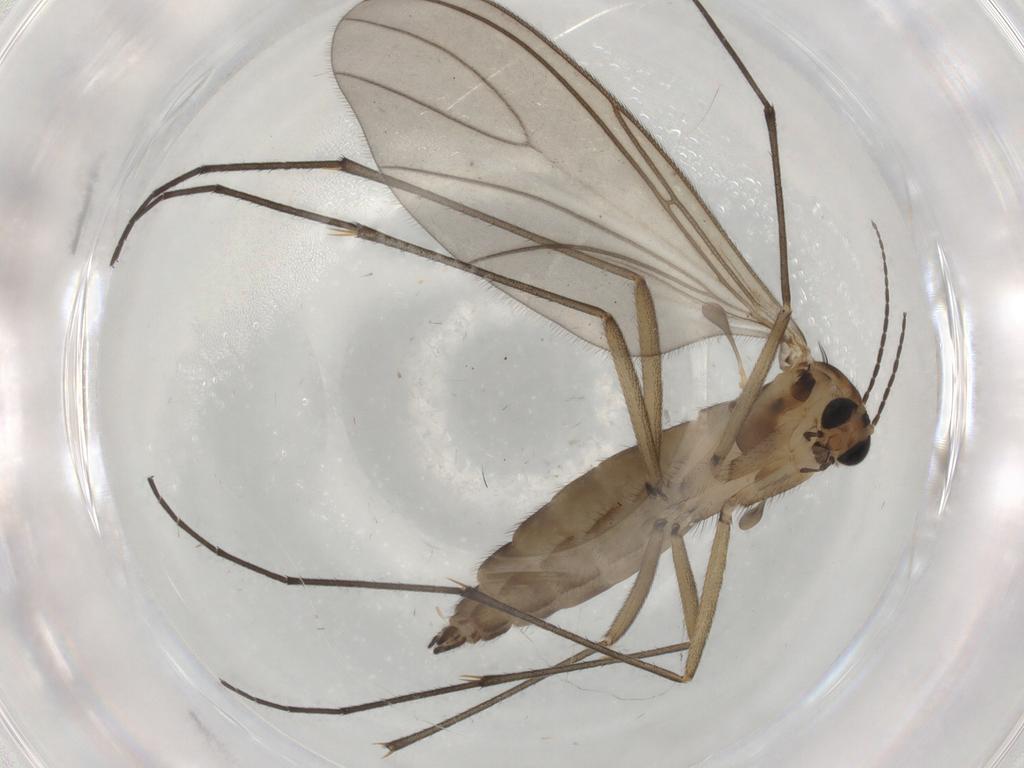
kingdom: Animalia
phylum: Arthropoda
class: Insecta
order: Diptera
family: Sciaridae
